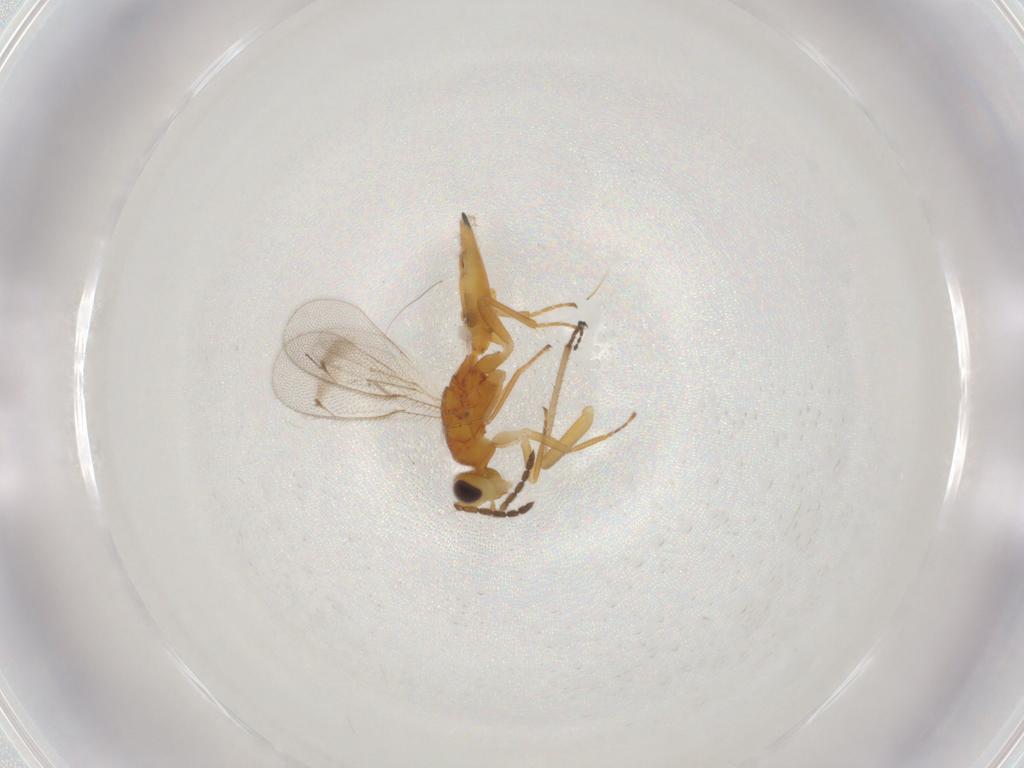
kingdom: Animalia
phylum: Arthropoda
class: Insecta
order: Hymenoptera
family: Eulophidae
